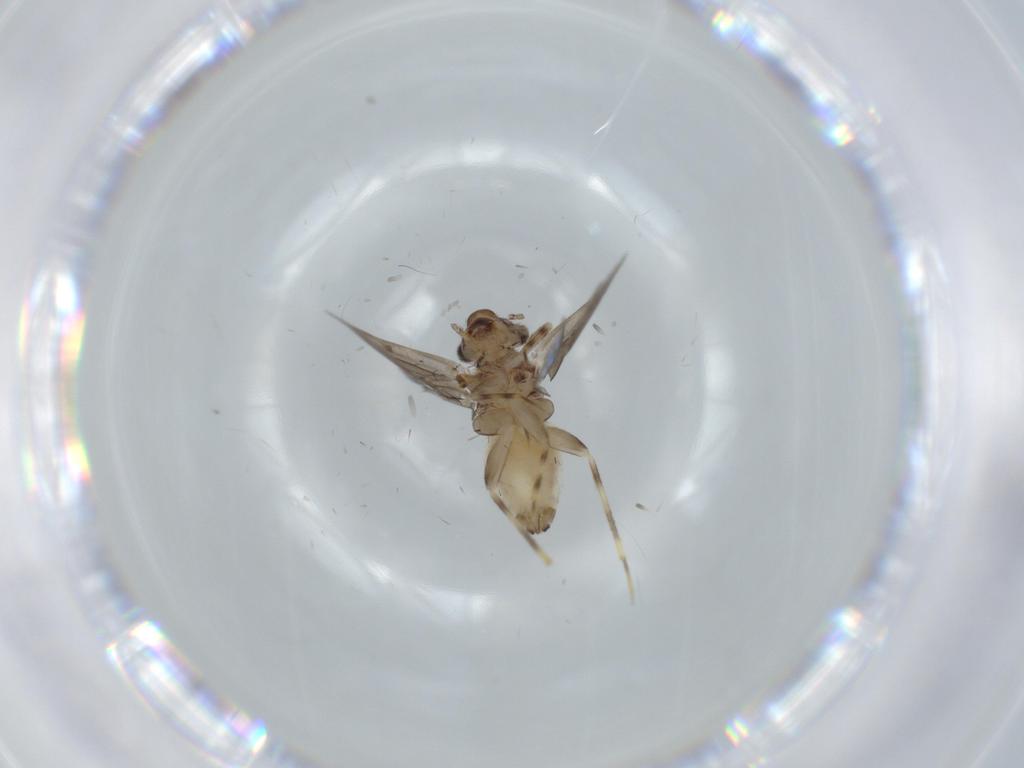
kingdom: Animalia
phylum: Arthropoda
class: Insecta
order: Psocodea
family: Lepidopsocidae
